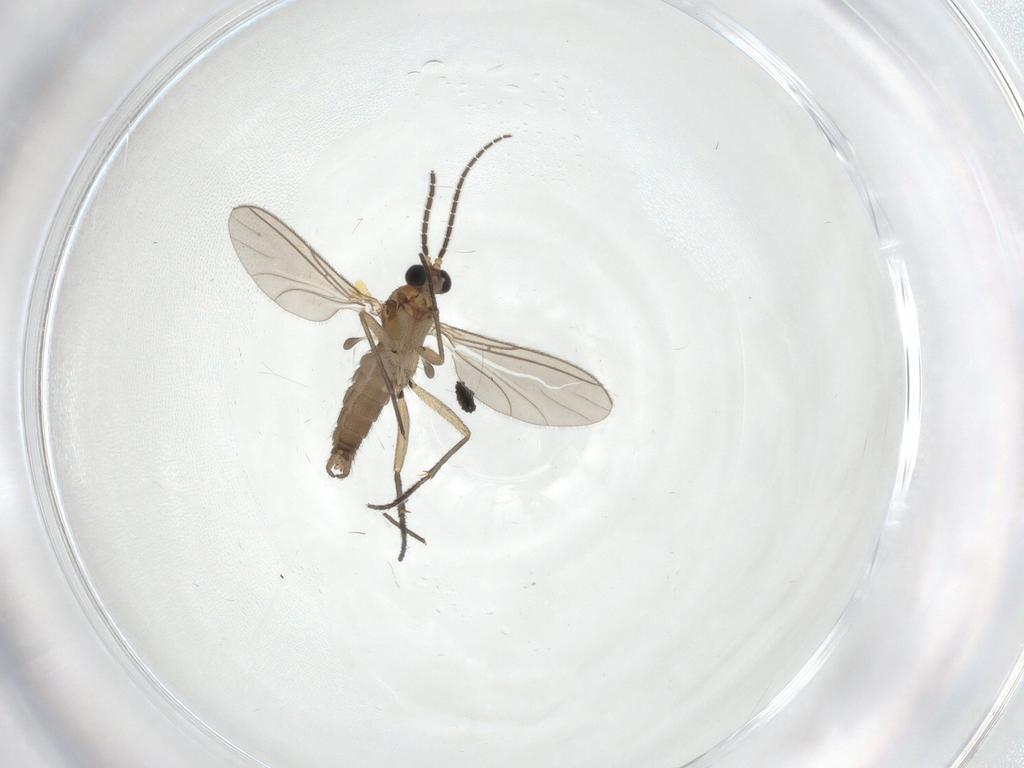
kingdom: Animalia
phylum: Arthropoda
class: Insecta
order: Diptera
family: Sciaridae
